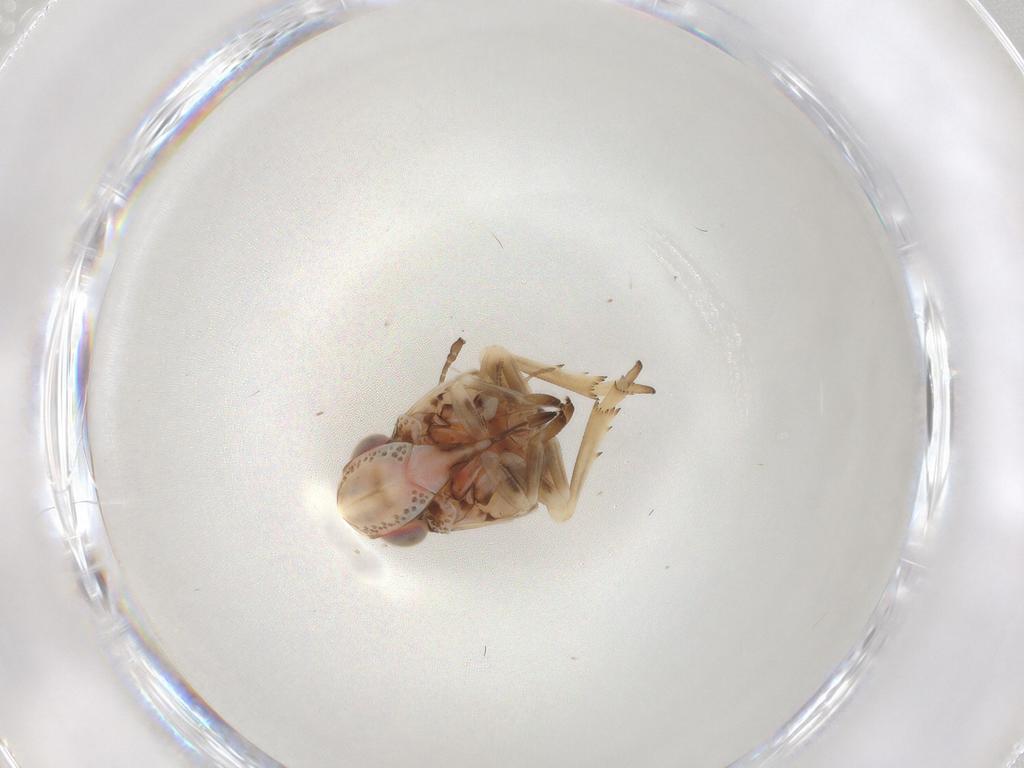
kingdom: Animalia
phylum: Arthropoda
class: Insecta
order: Hemiptera
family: Fulgoroidea_incertae_sedis
